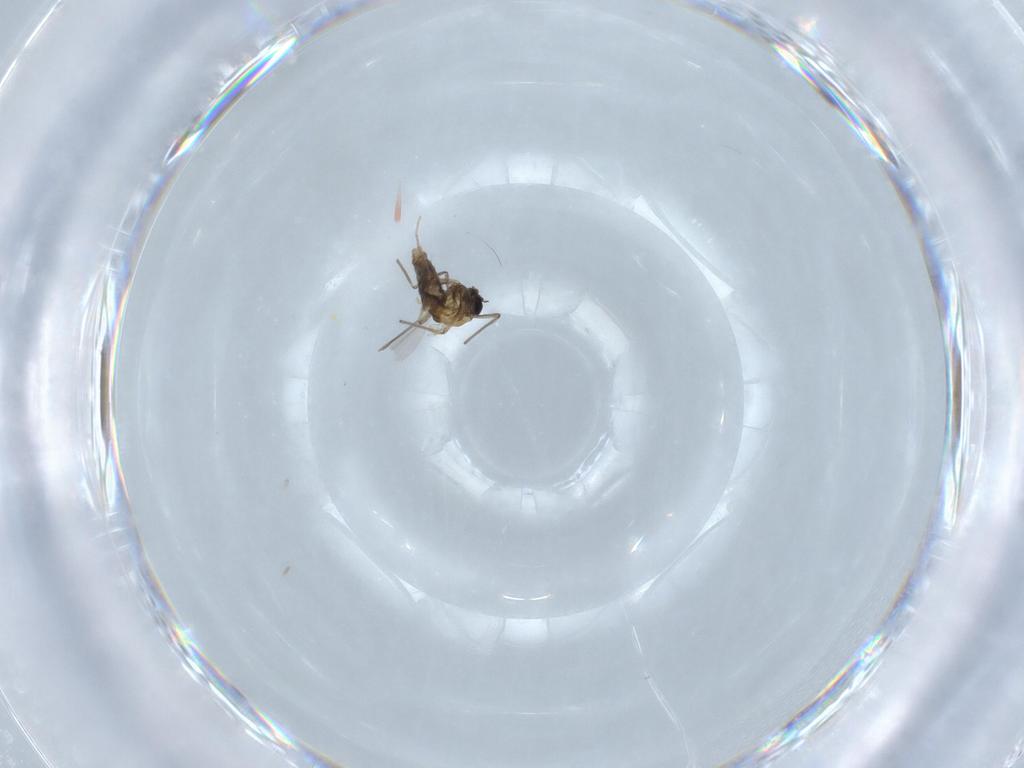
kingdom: Animalia
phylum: Arthropoda
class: Insecta
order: Diptera
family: Chironomidae
